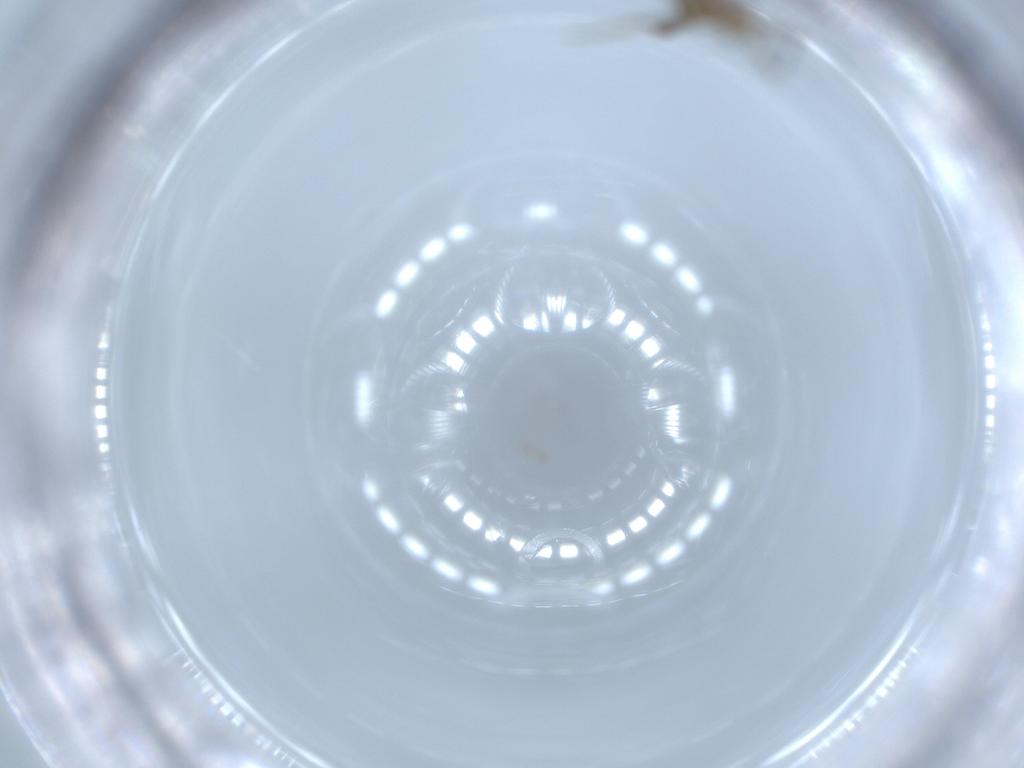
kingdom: Animalia
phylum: Arthropoda
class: Insecta
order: Diptera
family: Chironomidae
